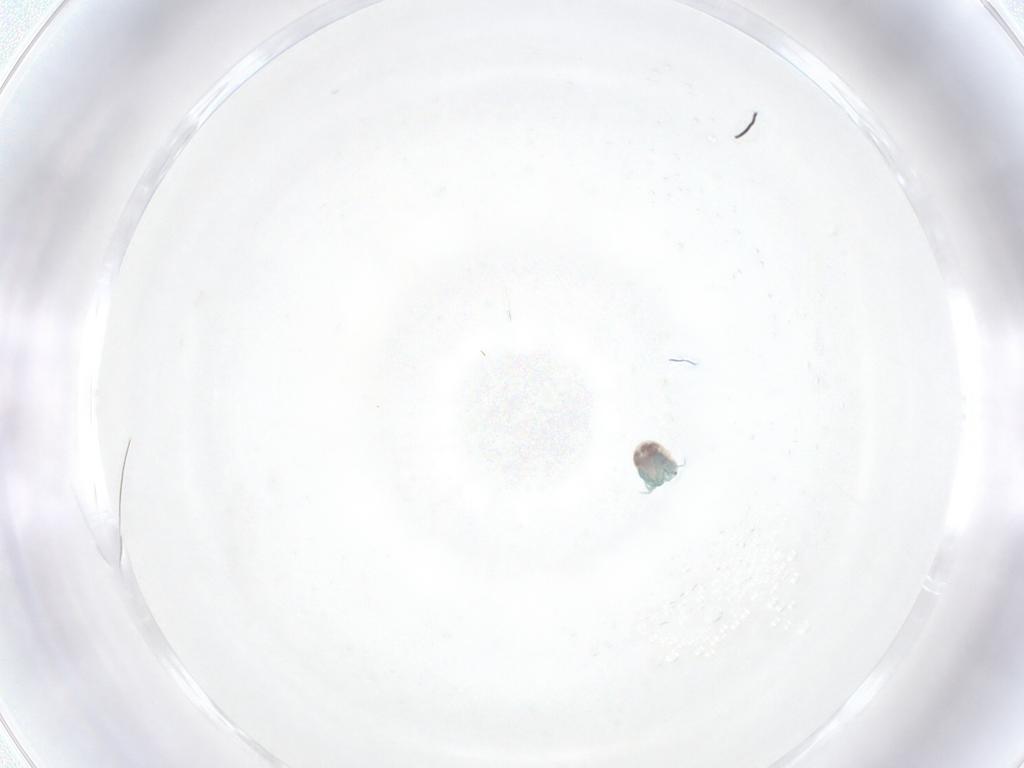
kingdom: Animalia
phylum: Arthropoda
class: Arachnida
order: Trombidiformes
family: Arrenuridae
